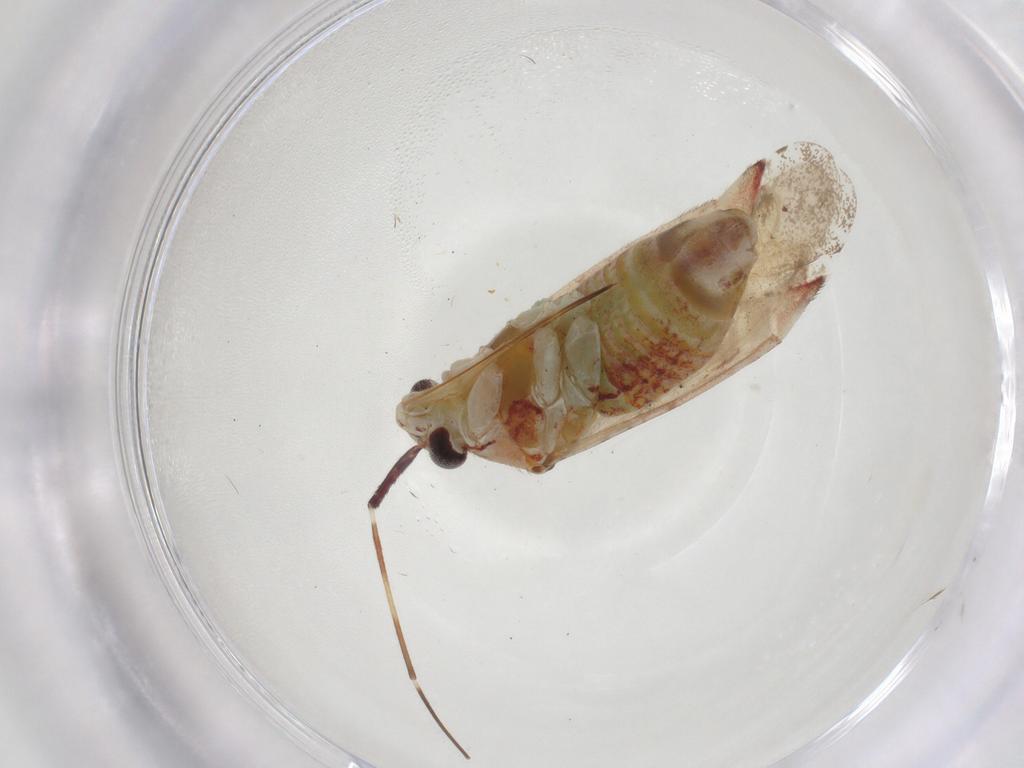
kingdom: Animalia
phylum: Arthropoda
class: Insecta
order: Hemiptera
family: Miridae
